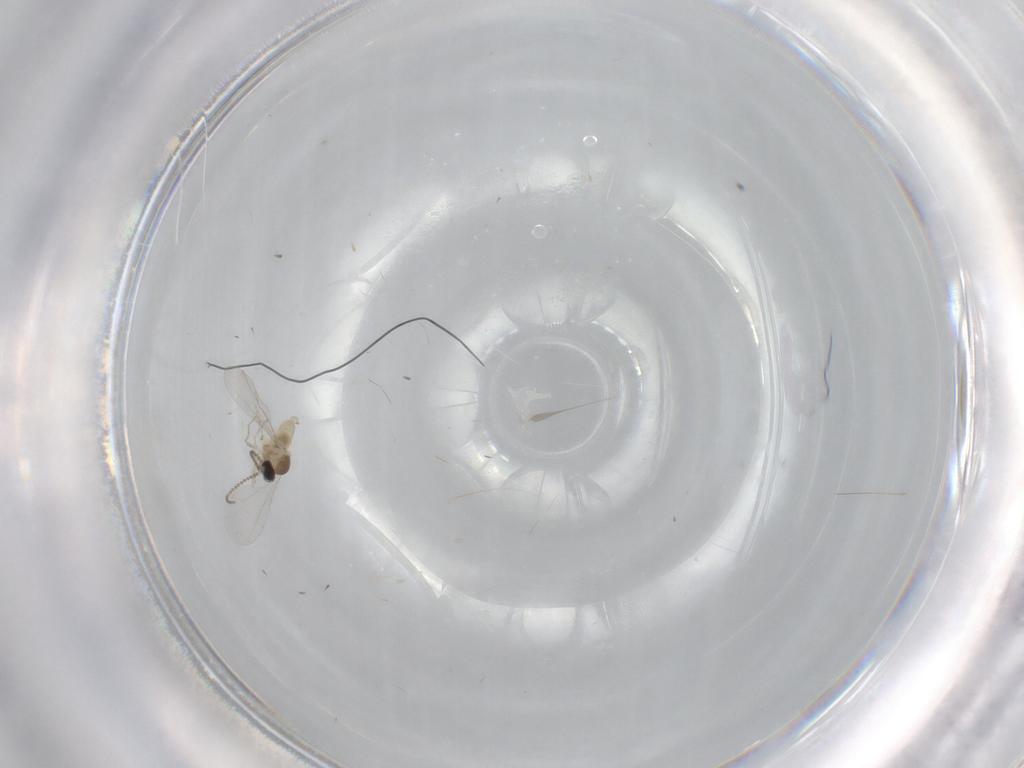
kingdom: Animalia
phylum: Arthropoda
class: Insecta
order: Diptera
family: Cecidomyiidae
